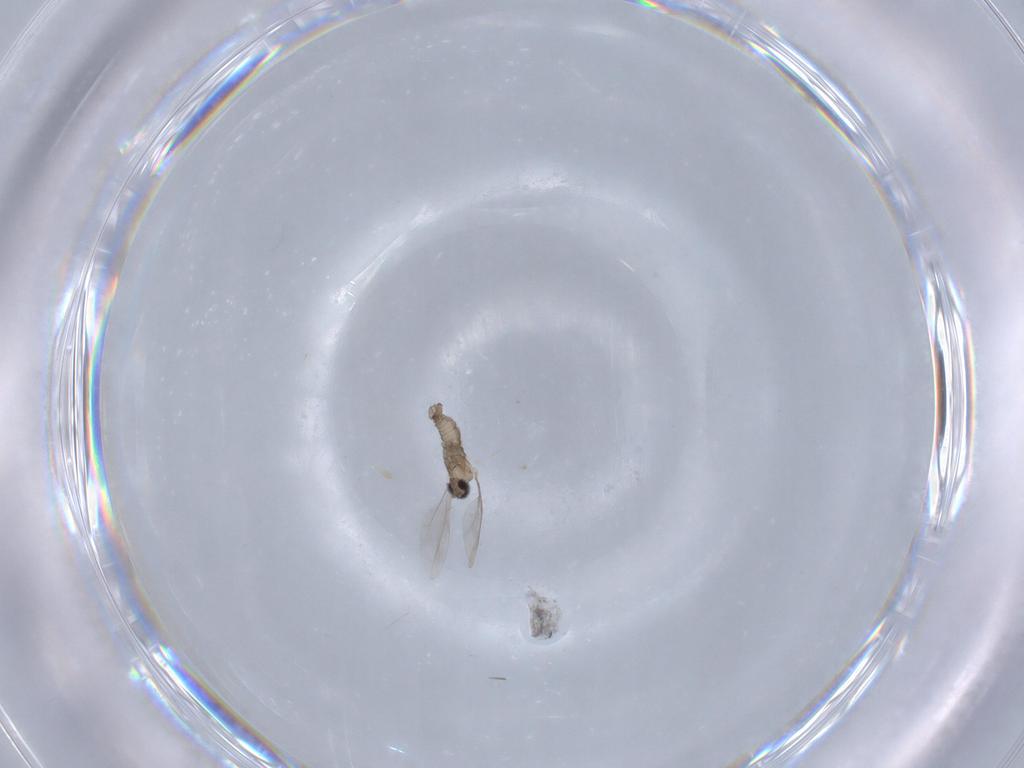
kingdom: Animalia
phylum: Arthropoda
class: Insecta
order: Diptera
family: Cecidomyiidae
